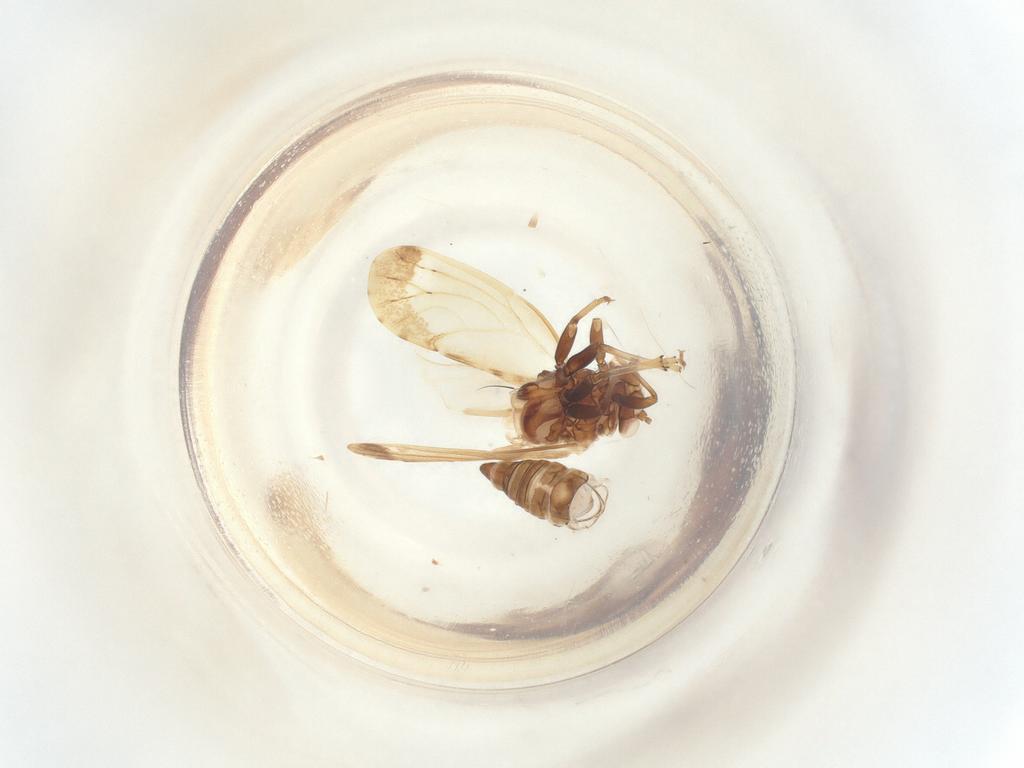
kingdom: Animalia
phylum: Arthropoda
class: Insecta
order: Hemiptera
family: Psyllidae
